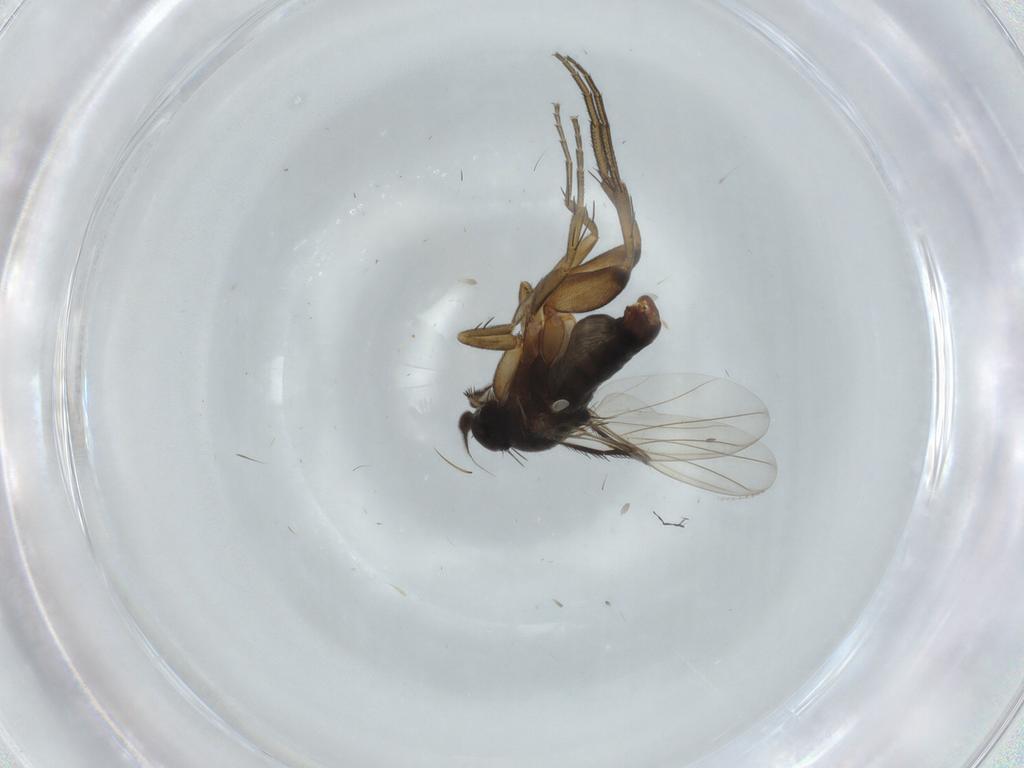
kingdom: Animalia
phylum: Arthropoda
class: Insecta
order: Diptera
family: Phoridae
